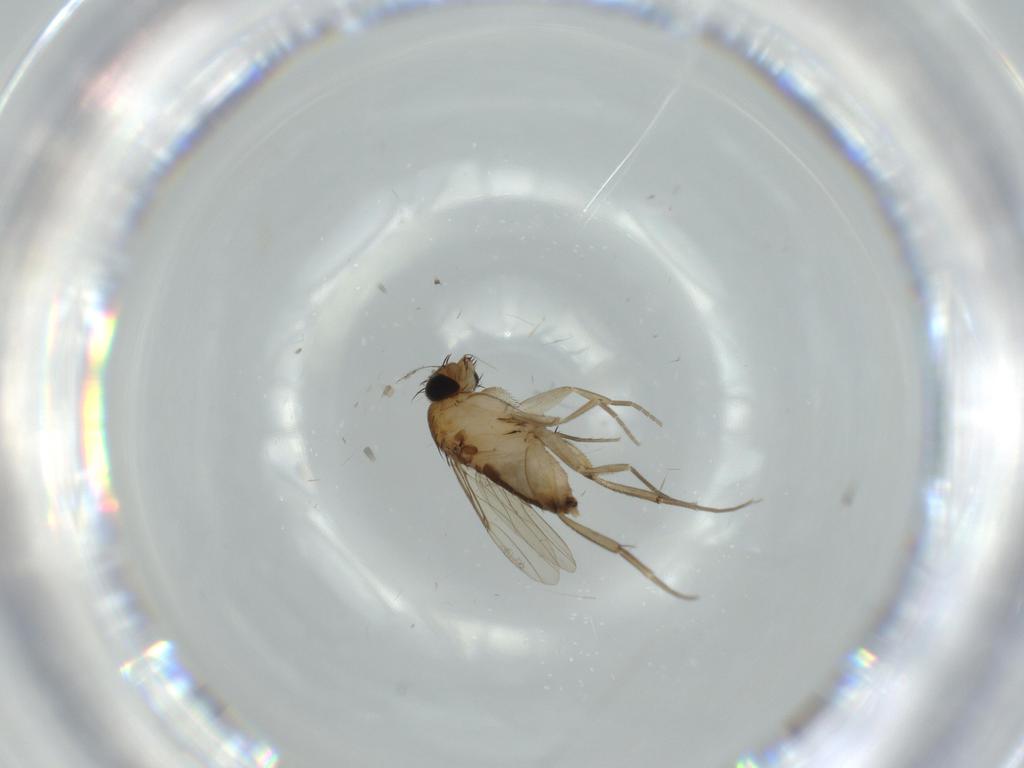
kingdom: Animalia
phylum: Arthropoda
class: Insecta
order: Diptera
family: Phoridae
